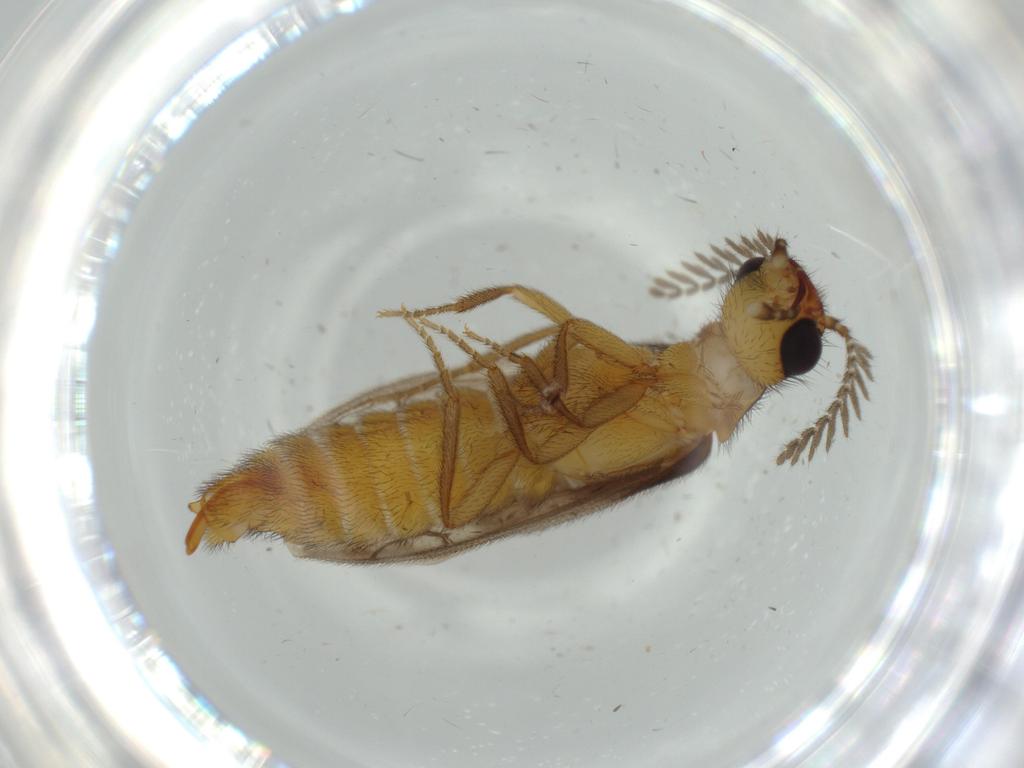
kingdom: Animalia
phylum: Arthropoda
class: Insecta
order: Coleoptera
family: Phengodidae
